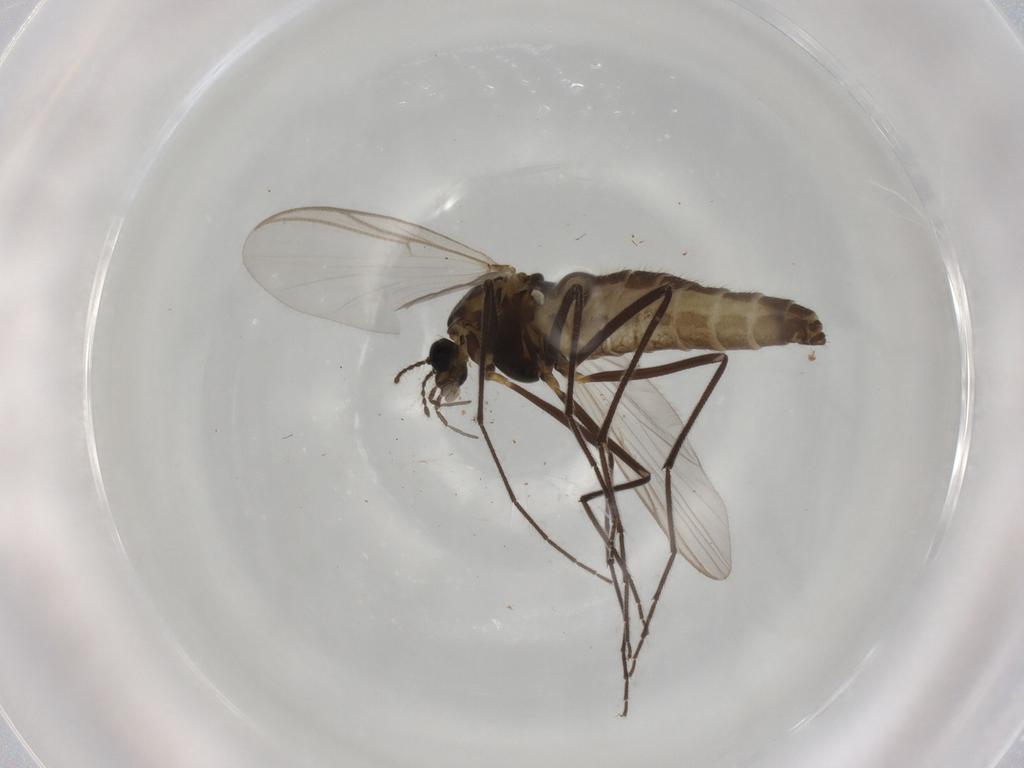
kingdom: Animalia
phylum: Arthropoda
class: Insecta
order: Diptera
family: Chironomidae
